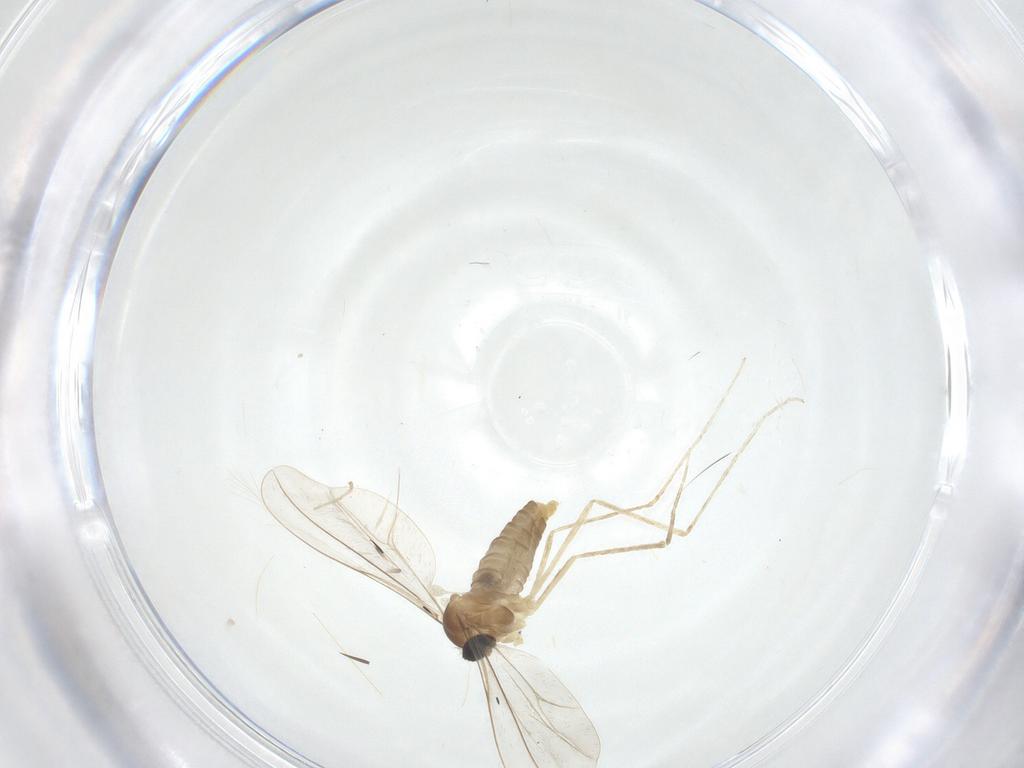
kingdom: Animalia
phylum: Arthropoda
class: Insecta
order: Diptera
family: Cecidomyiidae
